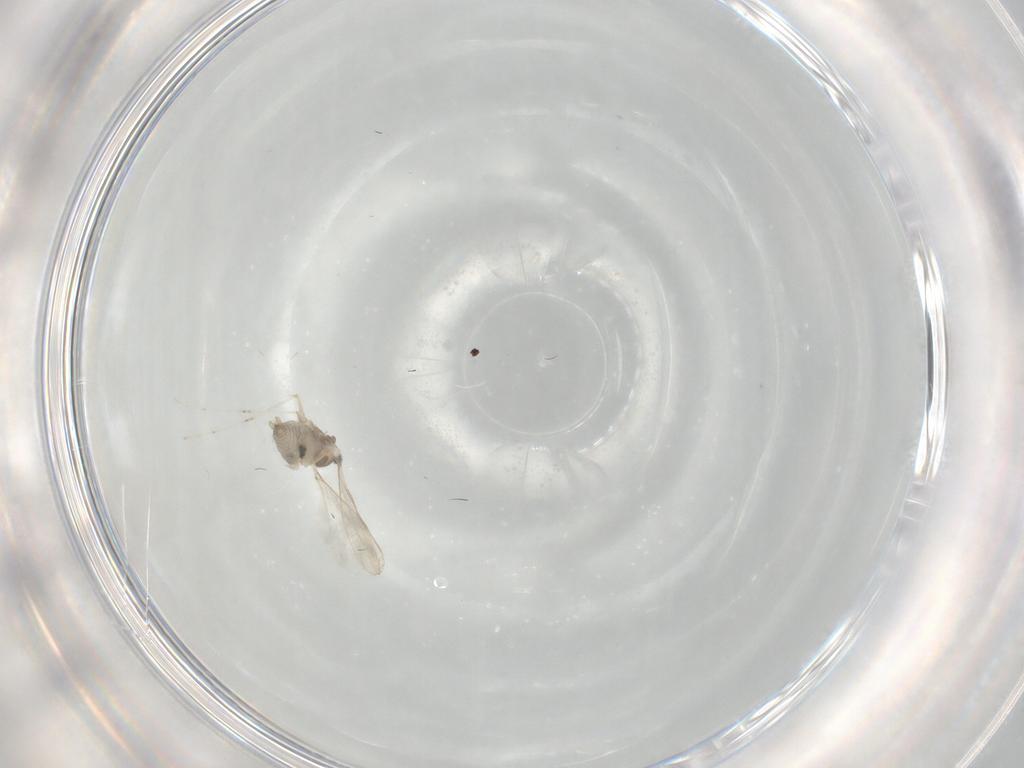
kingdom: Animalia
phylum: Arthropoda
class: Insecta
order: Diptera
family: Cecidomyiidae
